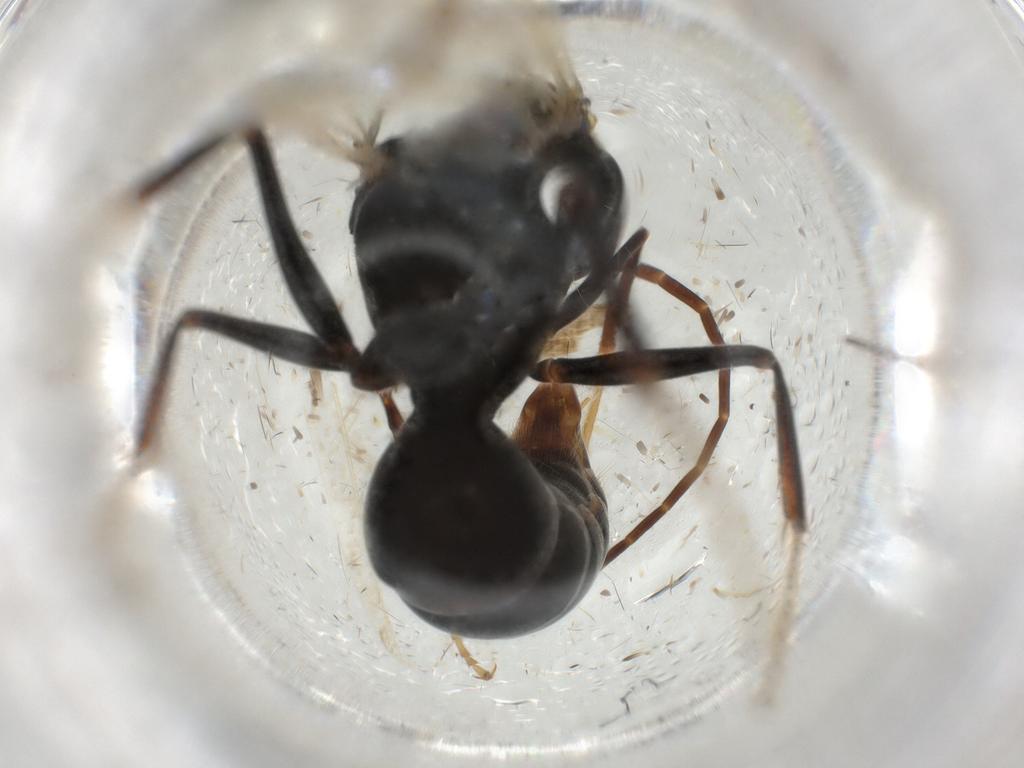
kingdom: Animalia
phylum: Arthropoda
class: Insecta
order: Hymenoptera
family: Formicidae
